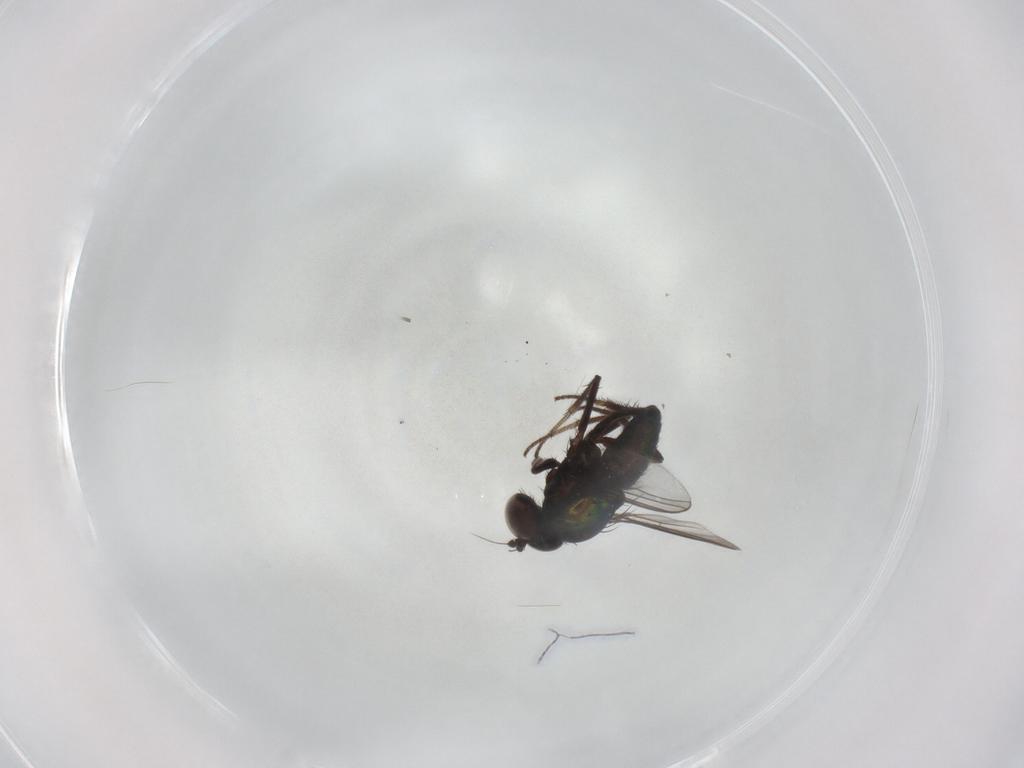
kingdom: Animalia
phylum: Arthropoda
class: Insecta
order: Diptera
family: Dolichopodidae
